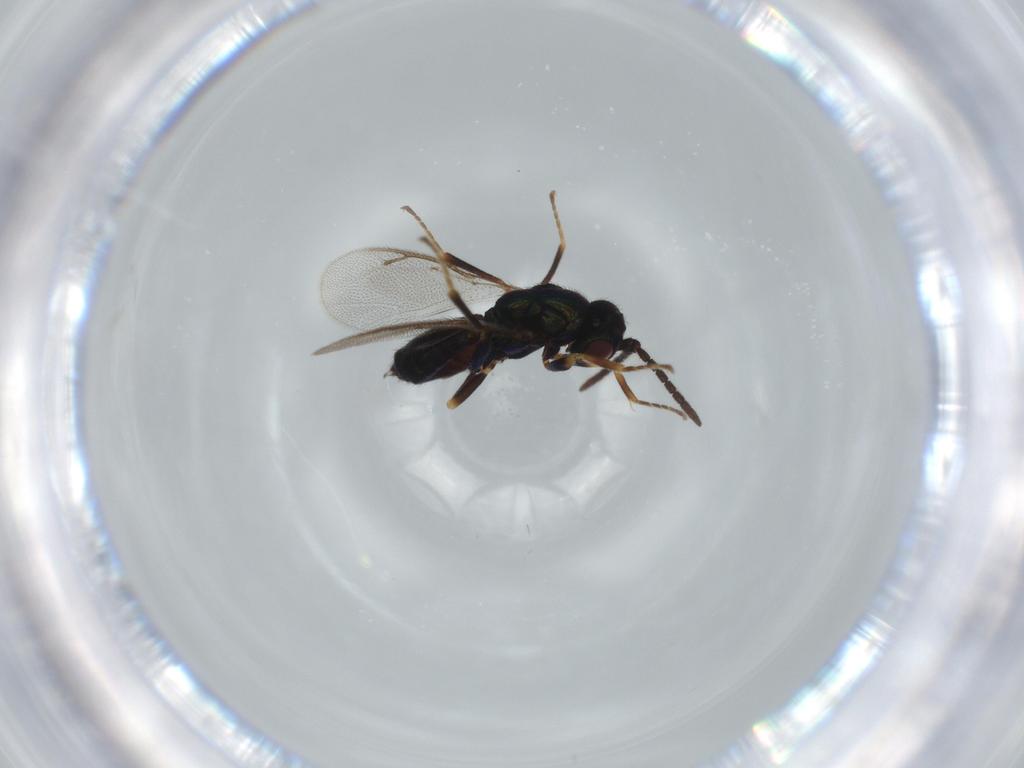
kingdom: Animalia
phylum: Arthropoda
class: Insecta
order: Hymenoptera
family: Pteromalidae
